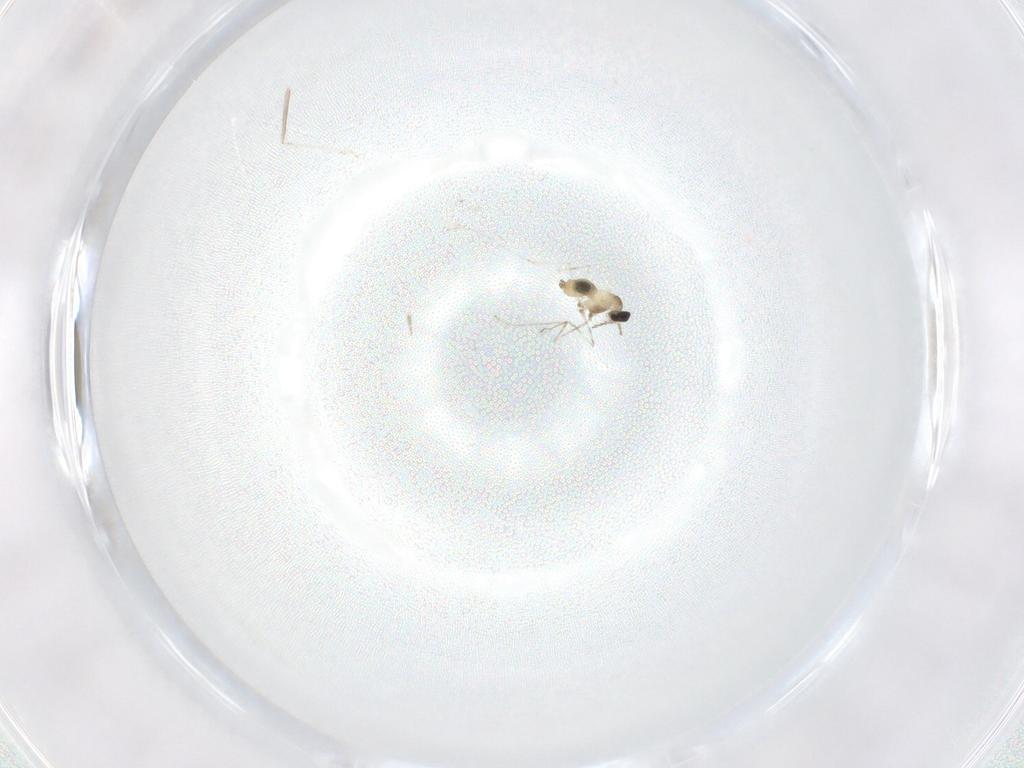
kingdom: Animalia
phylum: Arthropoda
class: Insecta
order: Diptera
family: Cecidomyiidae
